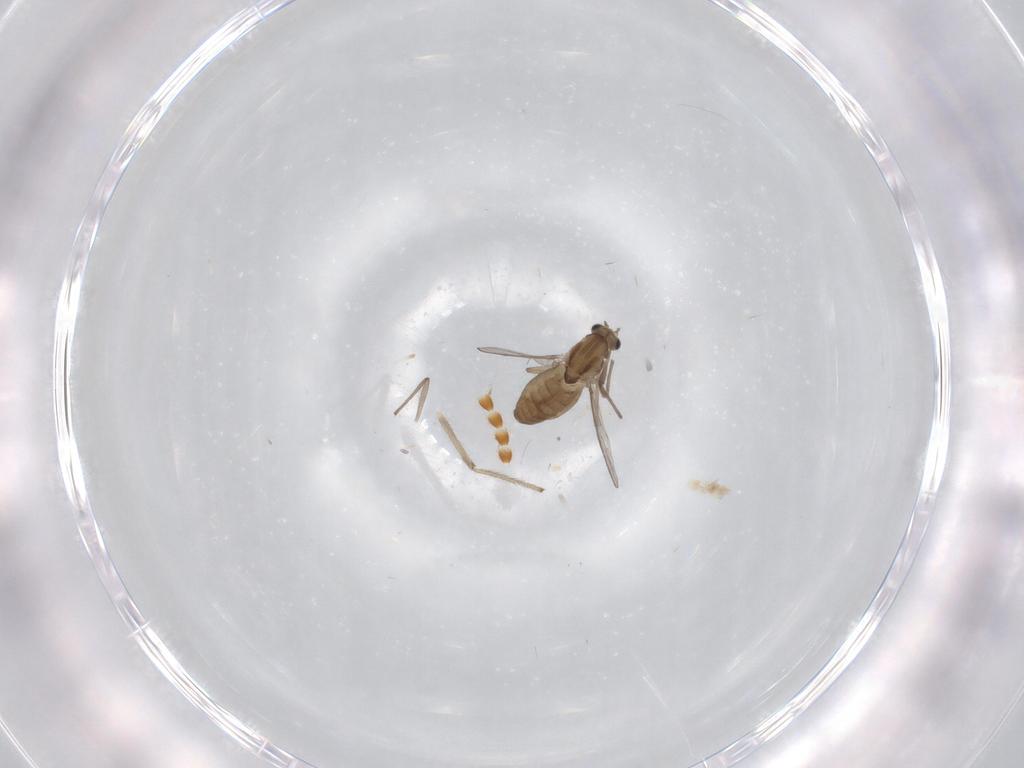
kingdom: Animalia
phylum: Arthropoda
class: Insecta
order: Diptera
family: Chironomidae
